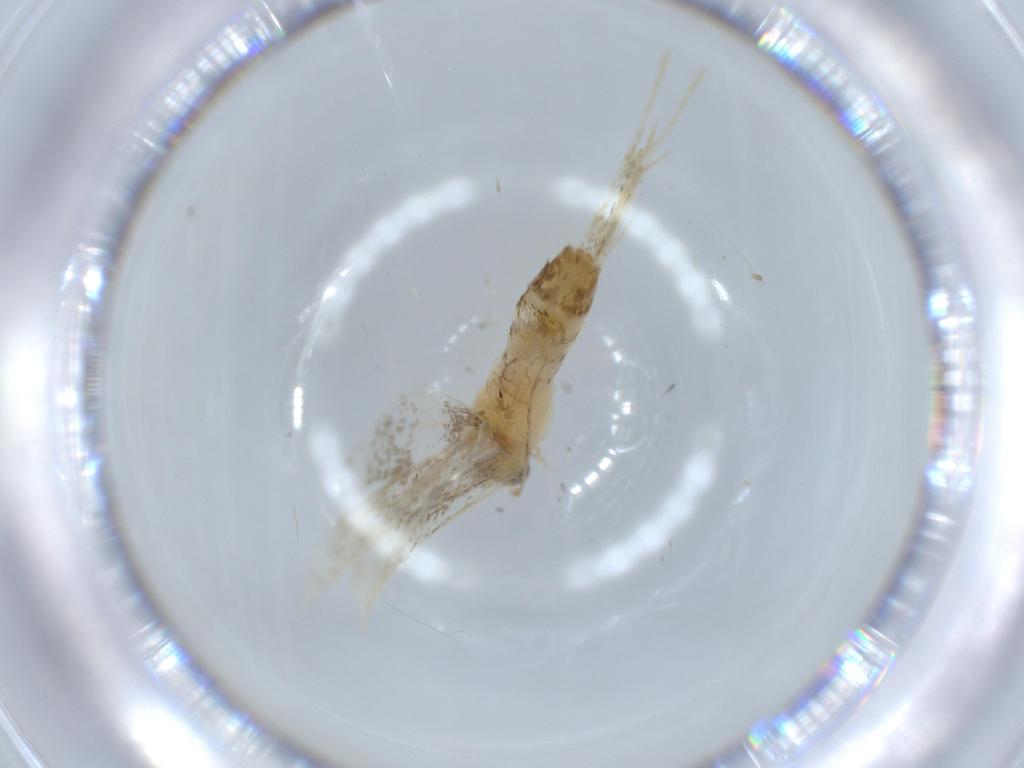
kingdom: Animalia
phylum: Arthropoda
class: Insecta
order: Lepidoptera
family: Tineidae
